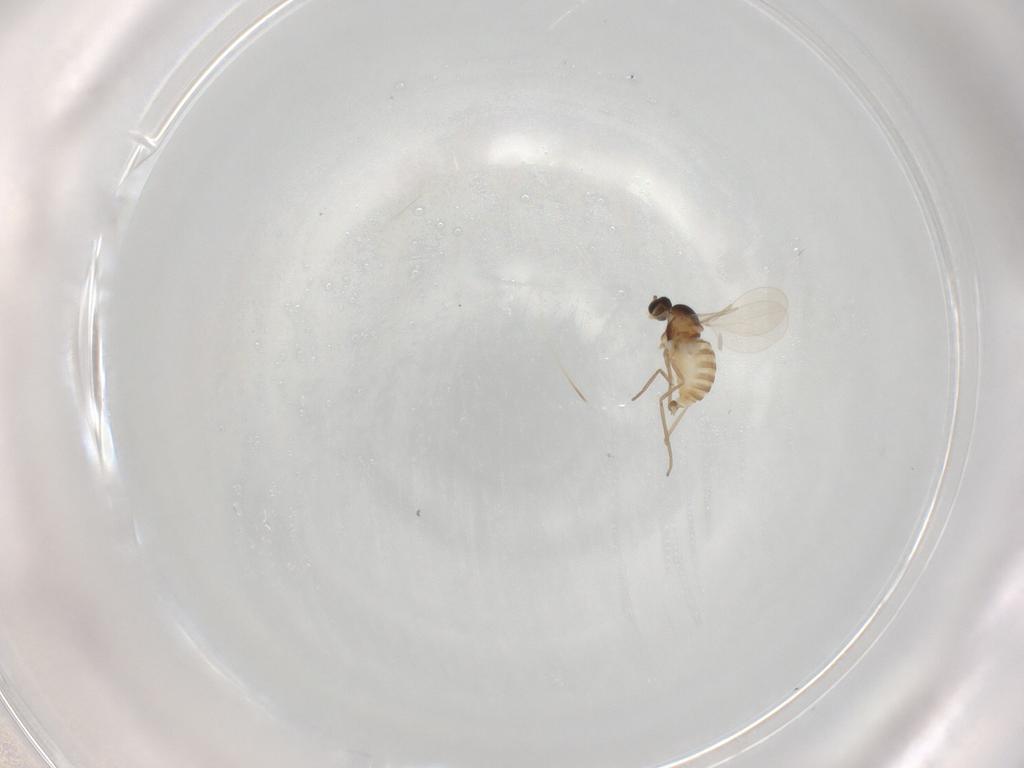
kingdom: Animalia
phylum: Arthropoda
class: Insecta
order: Diptera
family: Cecidomyiidae
